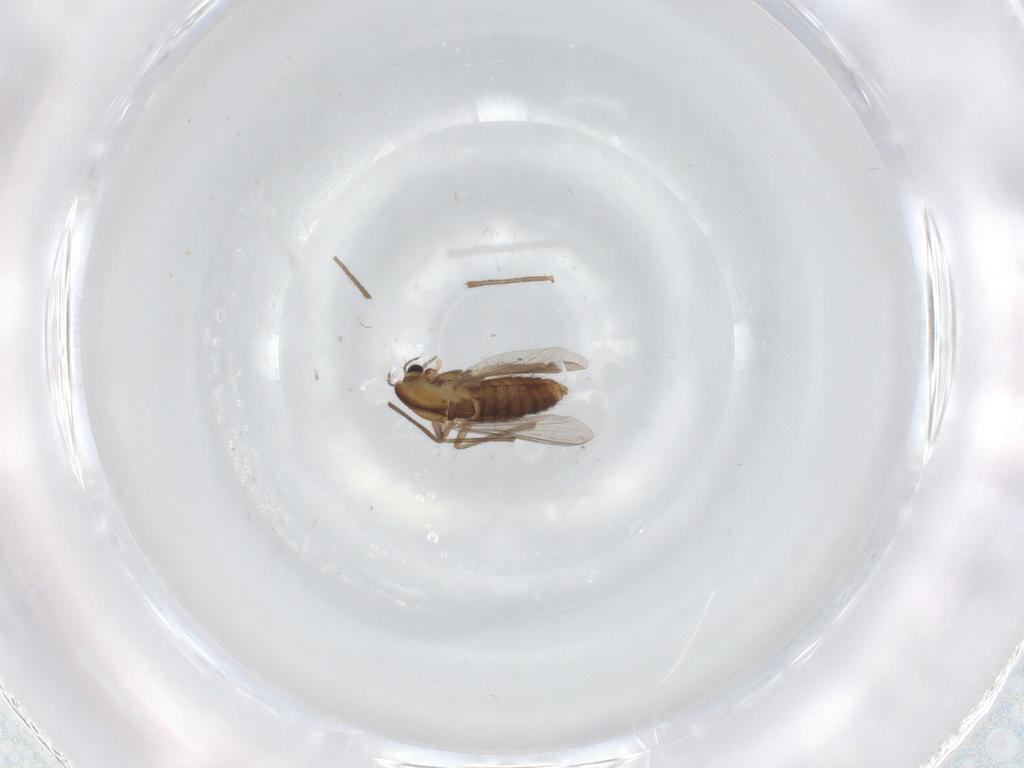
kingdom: Animalia
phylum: Arthropoda
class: Insecta
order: Diptera
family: Chironomidae
